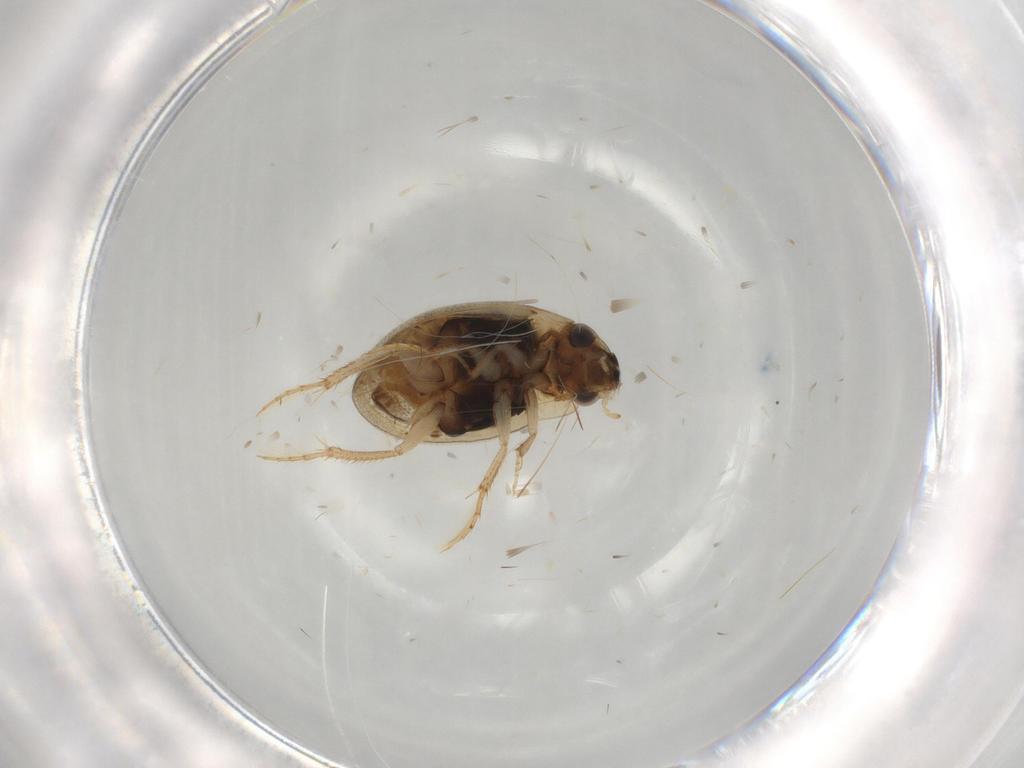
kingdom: Animalia
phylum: Arthropoda
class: Insecta
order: Coleoptera
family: Hydrophilidae
